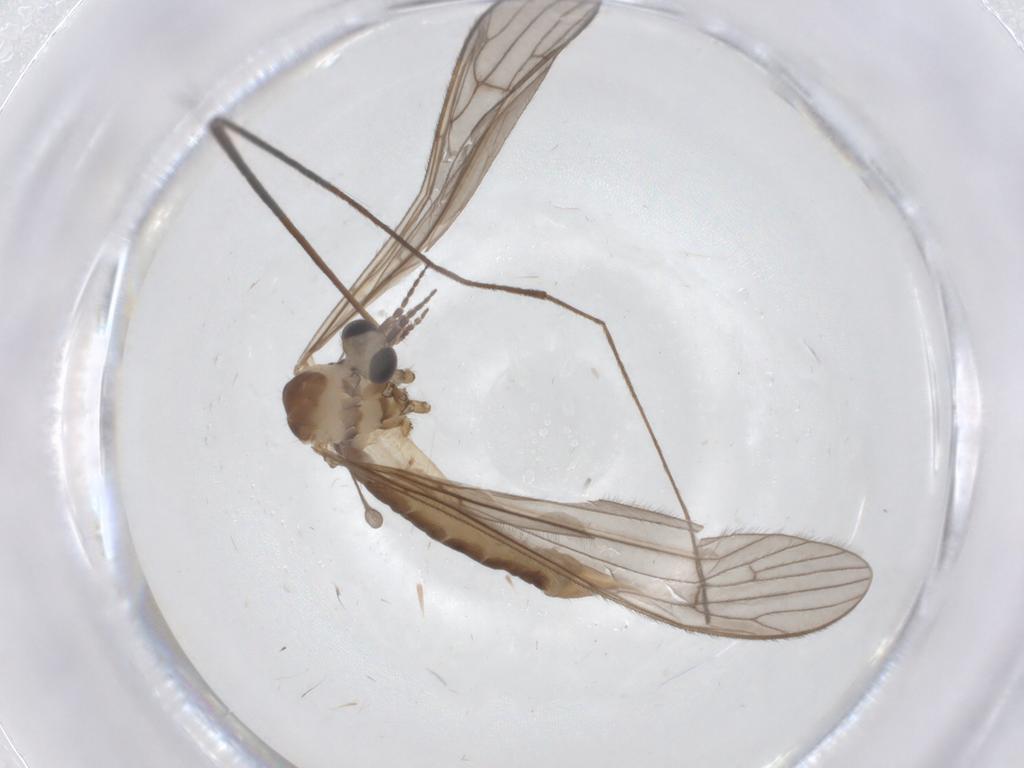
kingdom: Animalia
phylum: Arthropoda
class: Insecta
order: Diptera
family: Limoniidae
